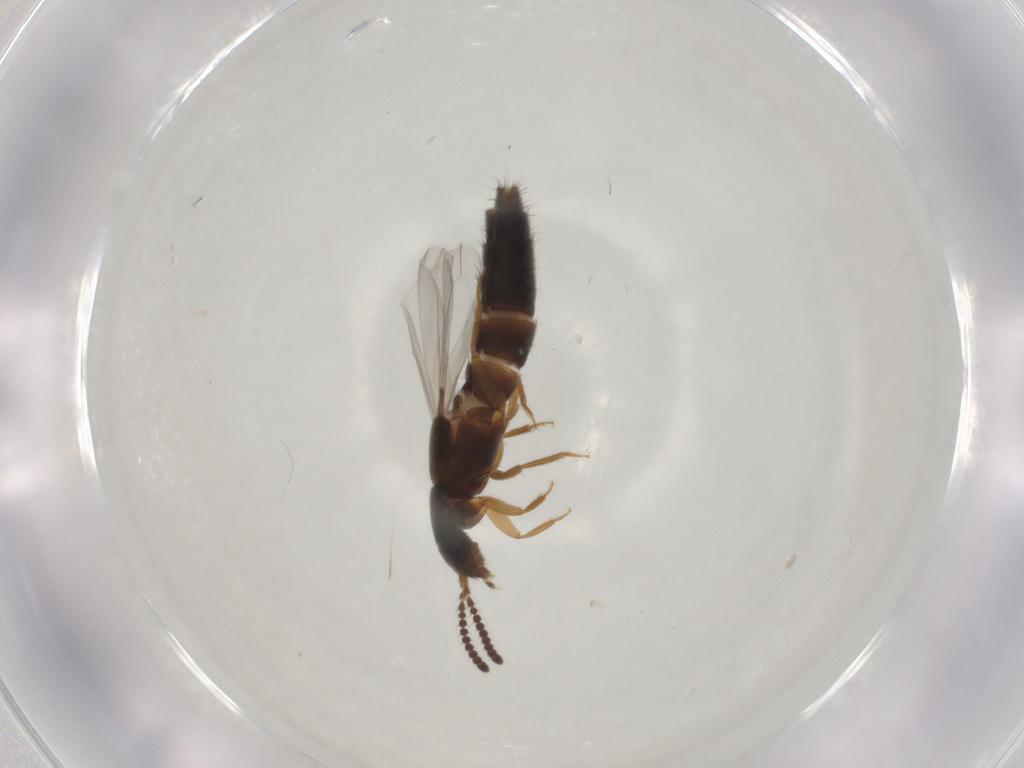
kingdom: Animalia
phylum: Arthropoda
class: Insecta
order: Coleoptera
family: Staphylinidae
